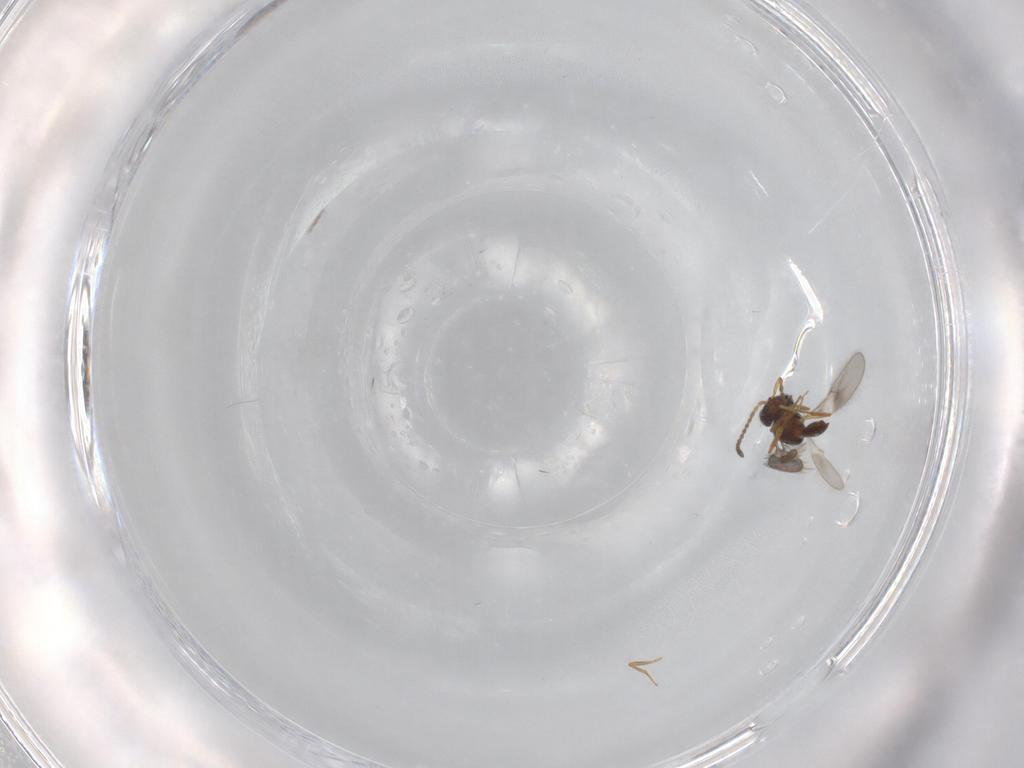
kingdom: Animalia
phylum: Arthropoda
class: Insecta
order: Hymenoptera
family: Scelionidae
